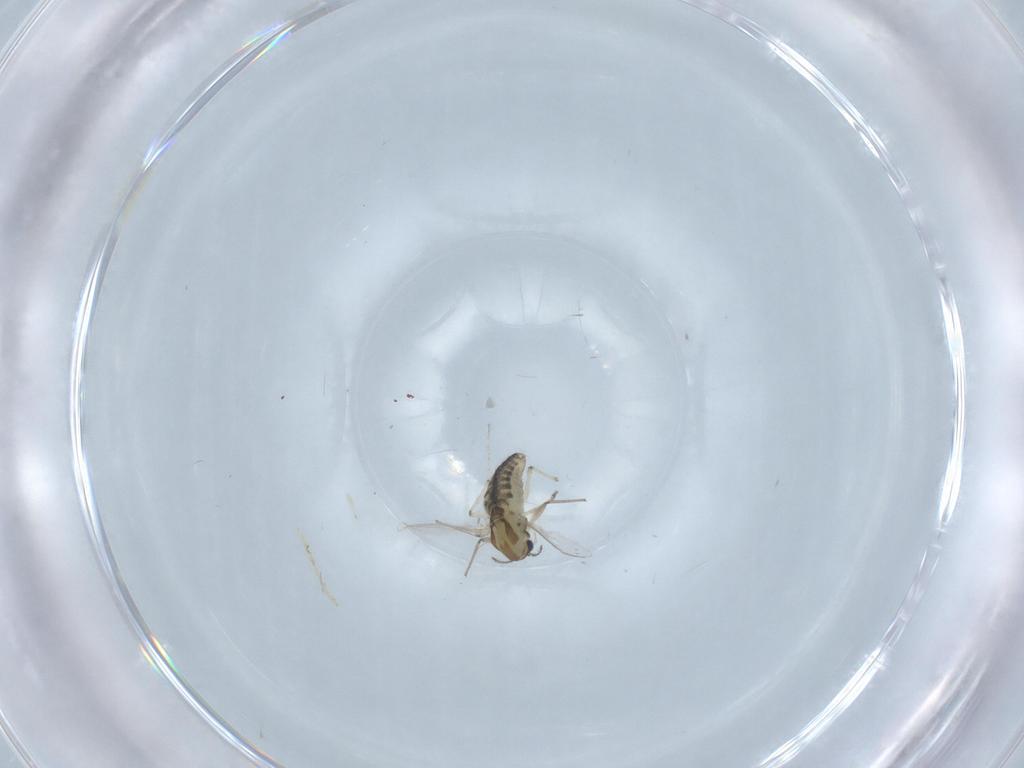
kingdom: Animalia
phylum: Arthropoda
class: Insecta
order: Diptera
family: Chironomidae
